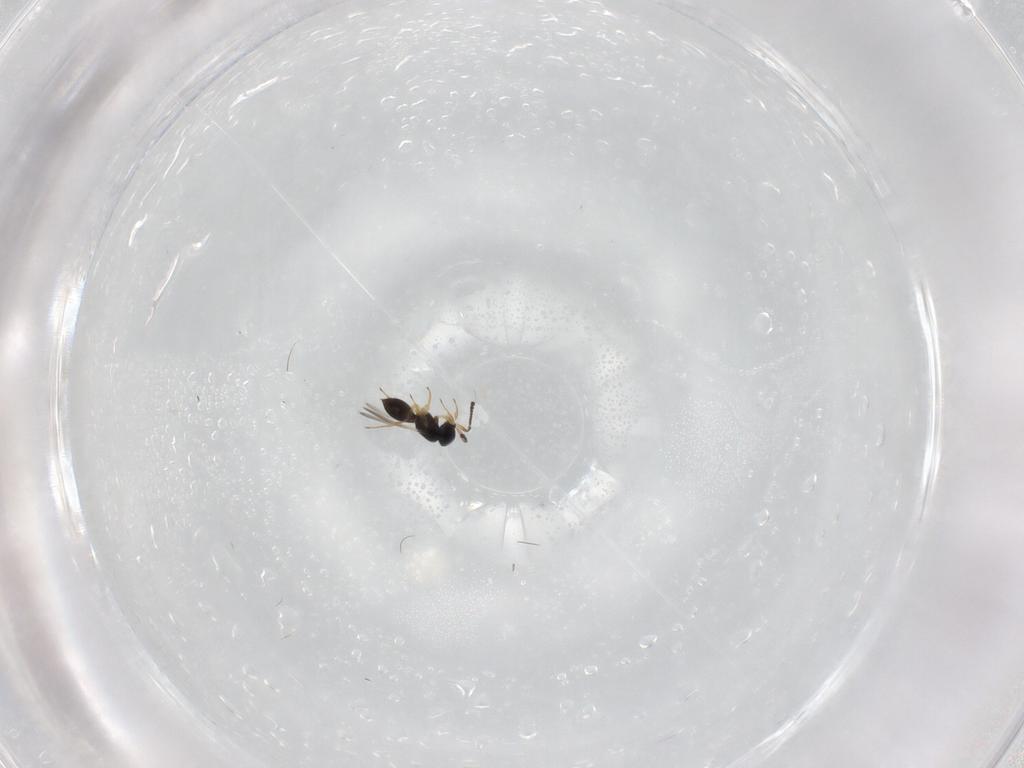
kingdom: Animalia
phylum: Arthropoda
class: Insecta
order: Hymenoptera
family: Scelionidae
